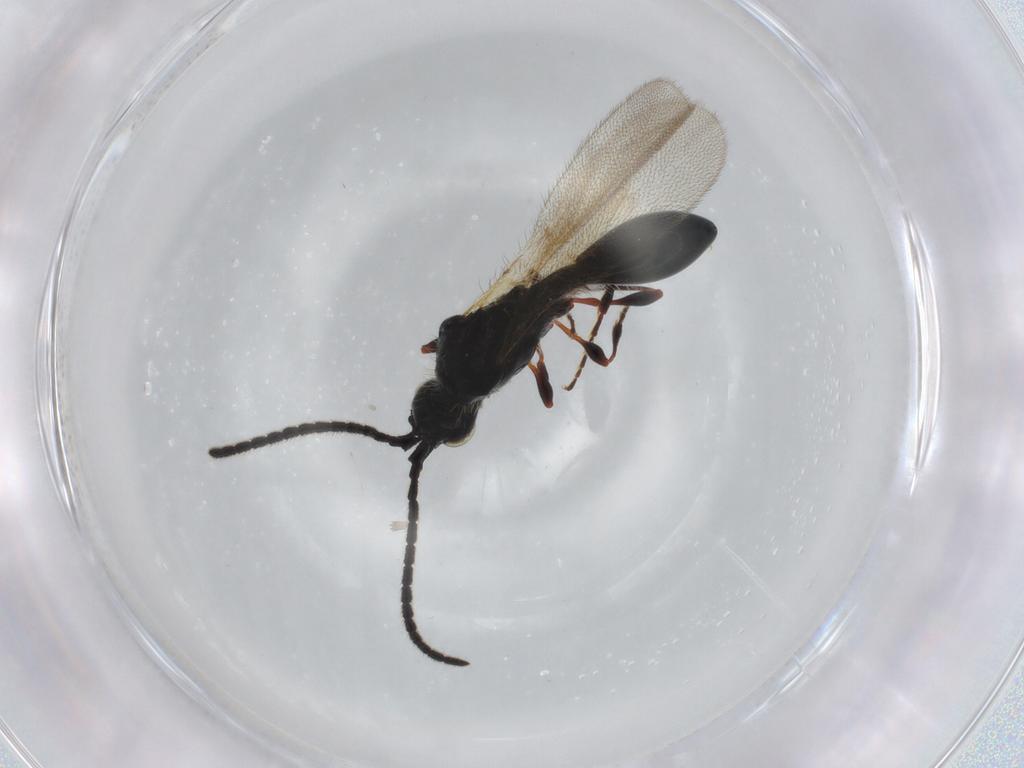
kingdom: Animalia
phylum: Arthropoda
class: Insecta
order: Hymenoptera
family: Diapriidae
